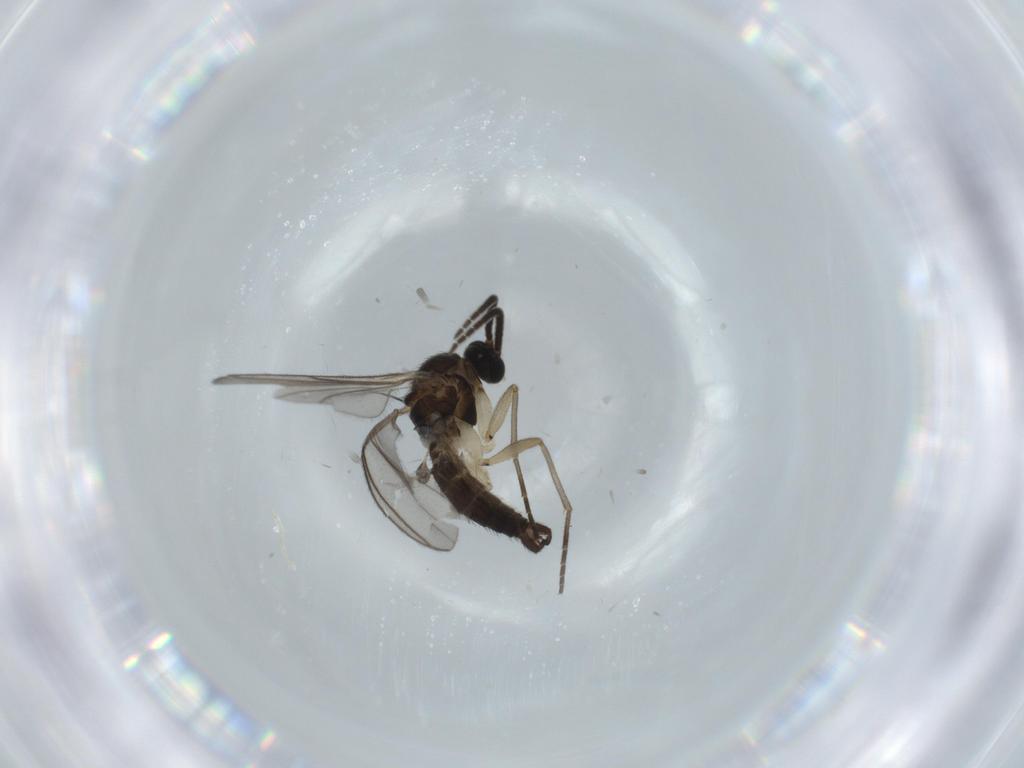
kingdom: Animalia
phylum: Arthropoda
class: Insecta
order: Diptera
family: Sciaridae
